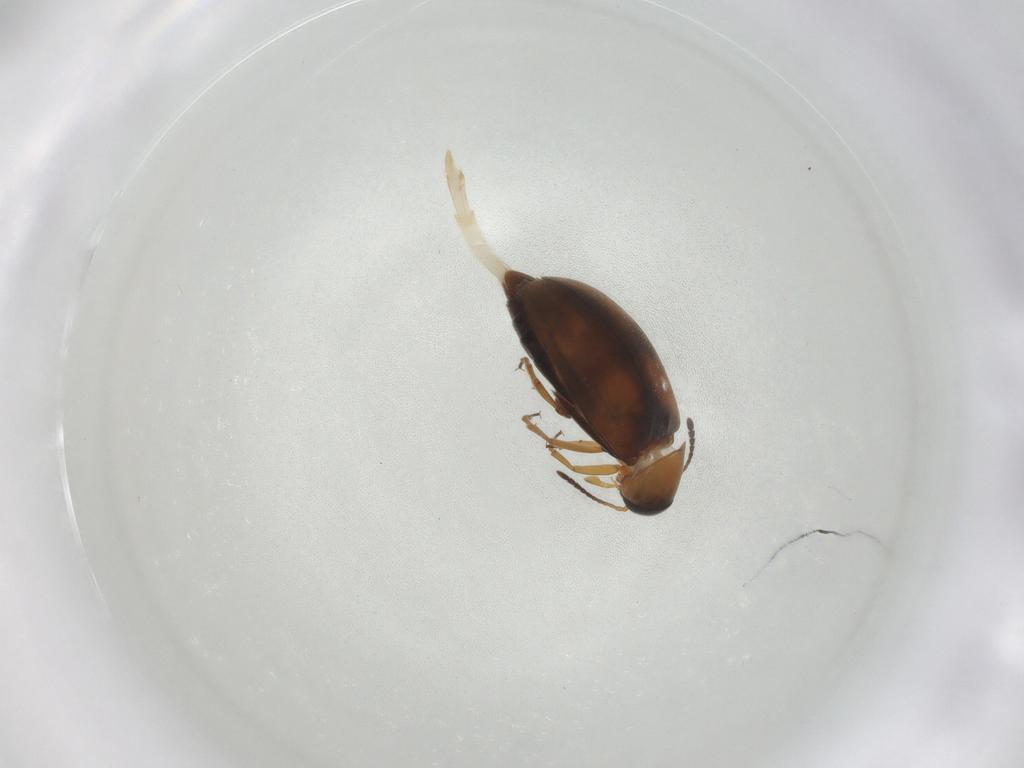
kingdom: Animalia
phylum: Arthropoda
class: Insecta
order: Coleoptera
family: Scraptiidae
